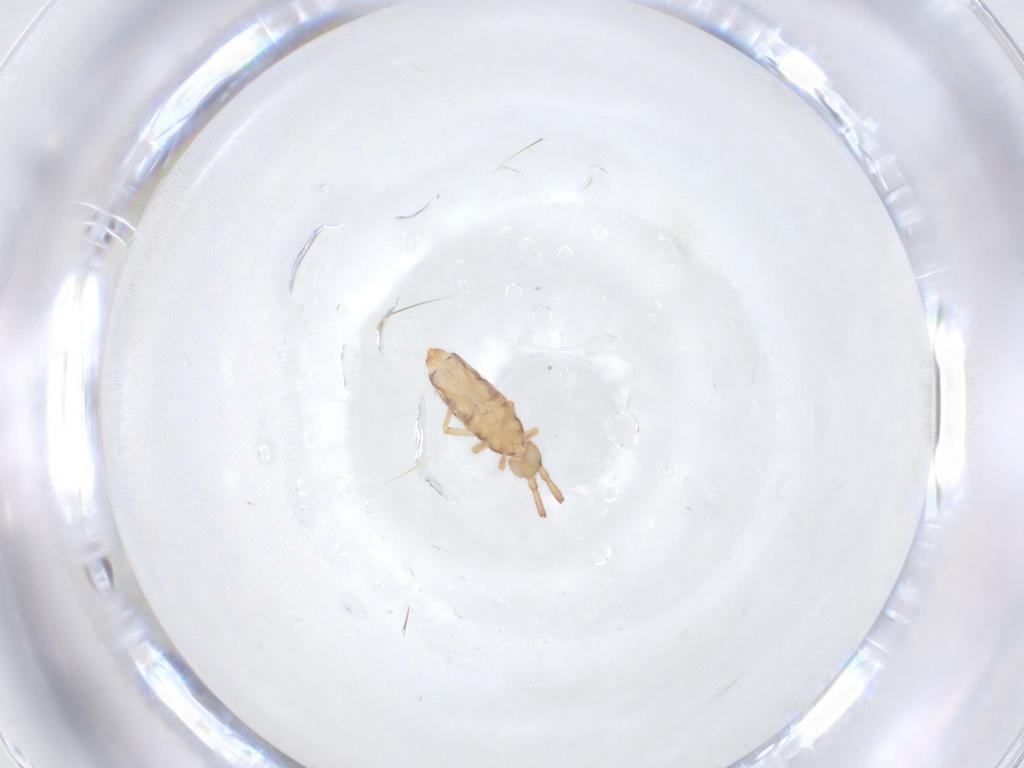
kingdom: Animalia
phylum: Arthropoda
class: Collembola
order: Entomobryomorpha
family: Entomobryidae
